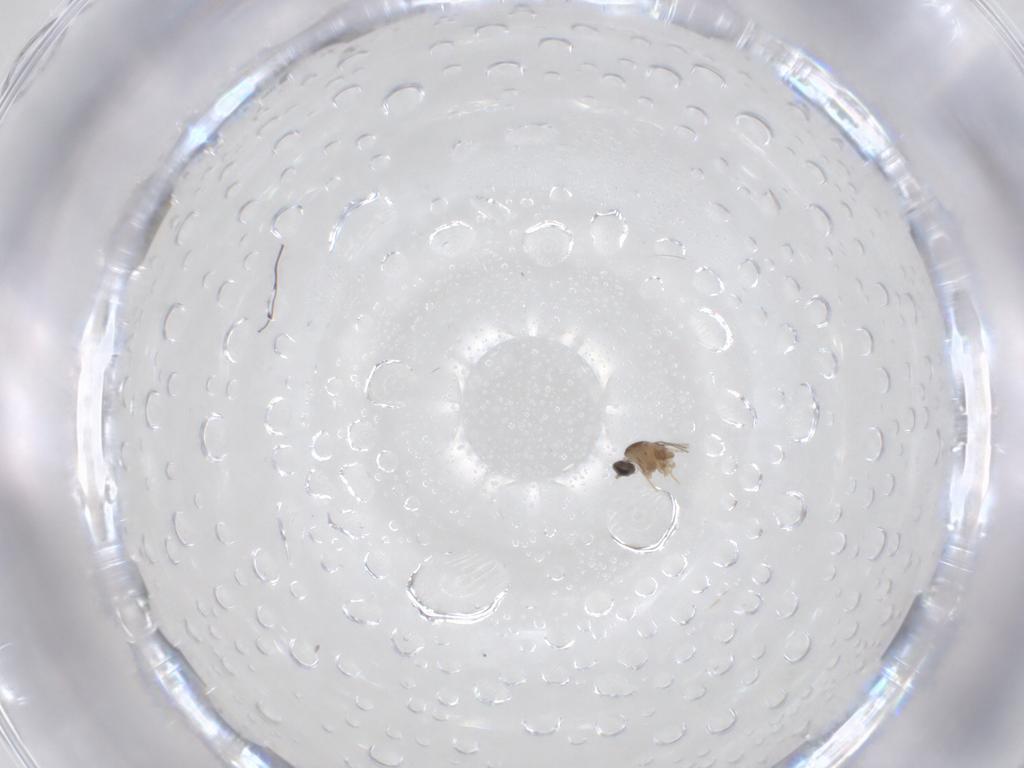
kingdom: Animalia
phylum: Arthropoda
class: Insecta
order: Diptera
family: Cecidomyiidae
